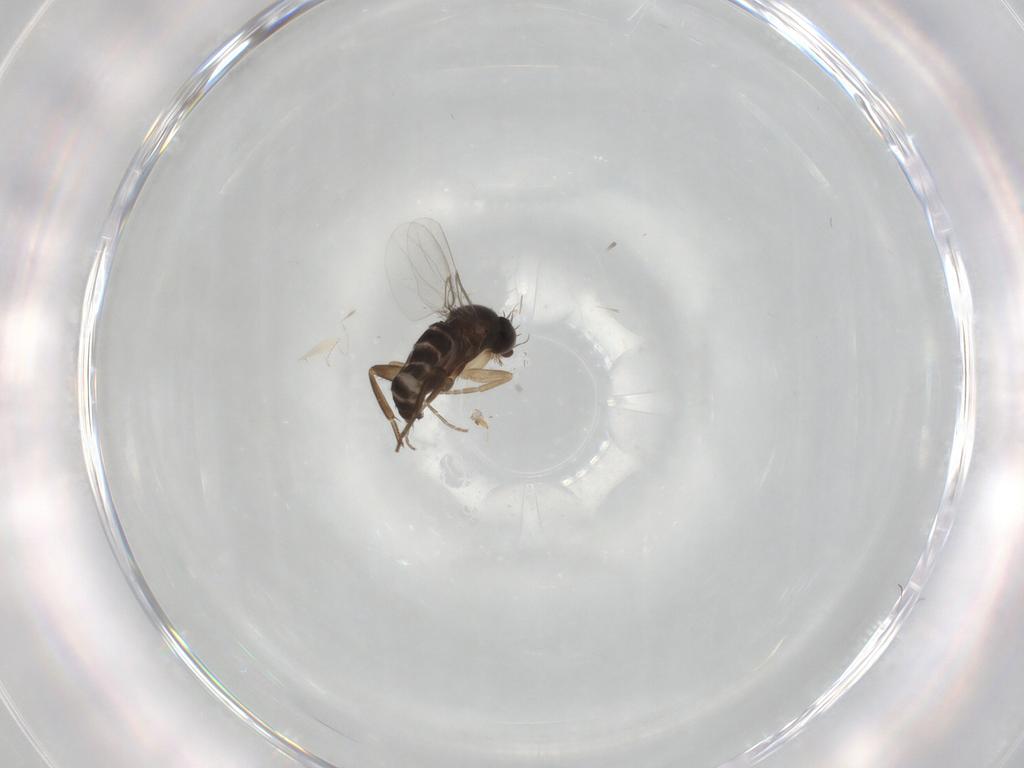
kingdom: Animalia
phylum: Arthropoda
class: Insecta
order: Diptera
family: Phoridae
